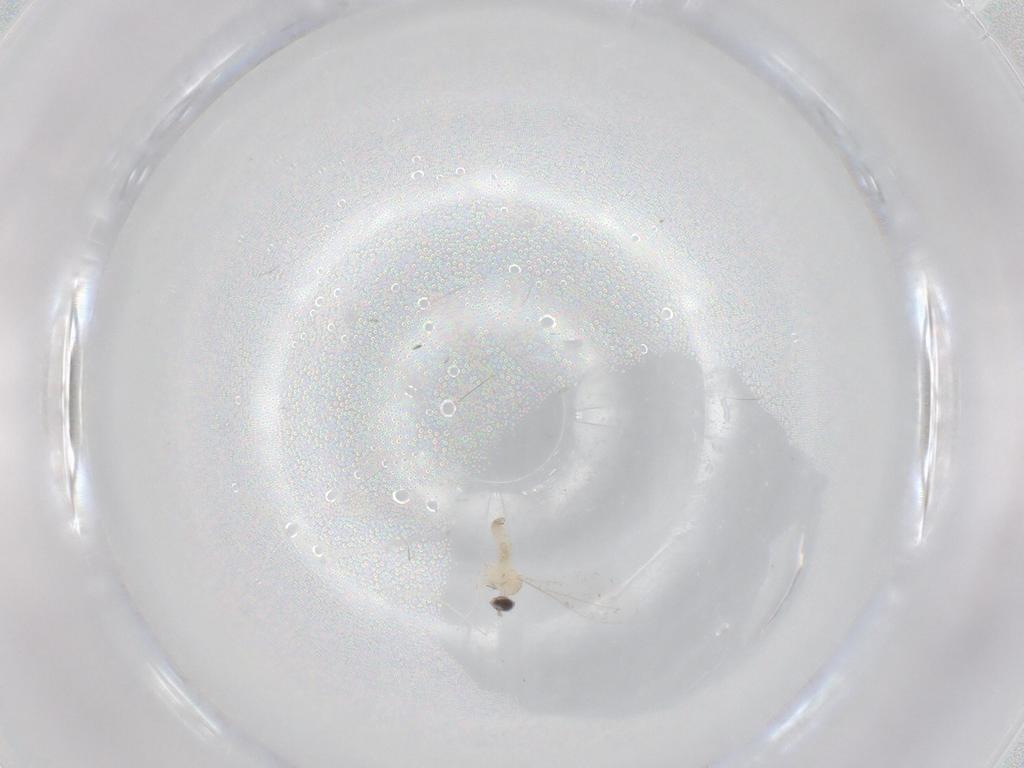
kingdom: Animalia
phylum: Arthropoda
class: Insecta
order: Diptera
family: Cecidomyiidae
